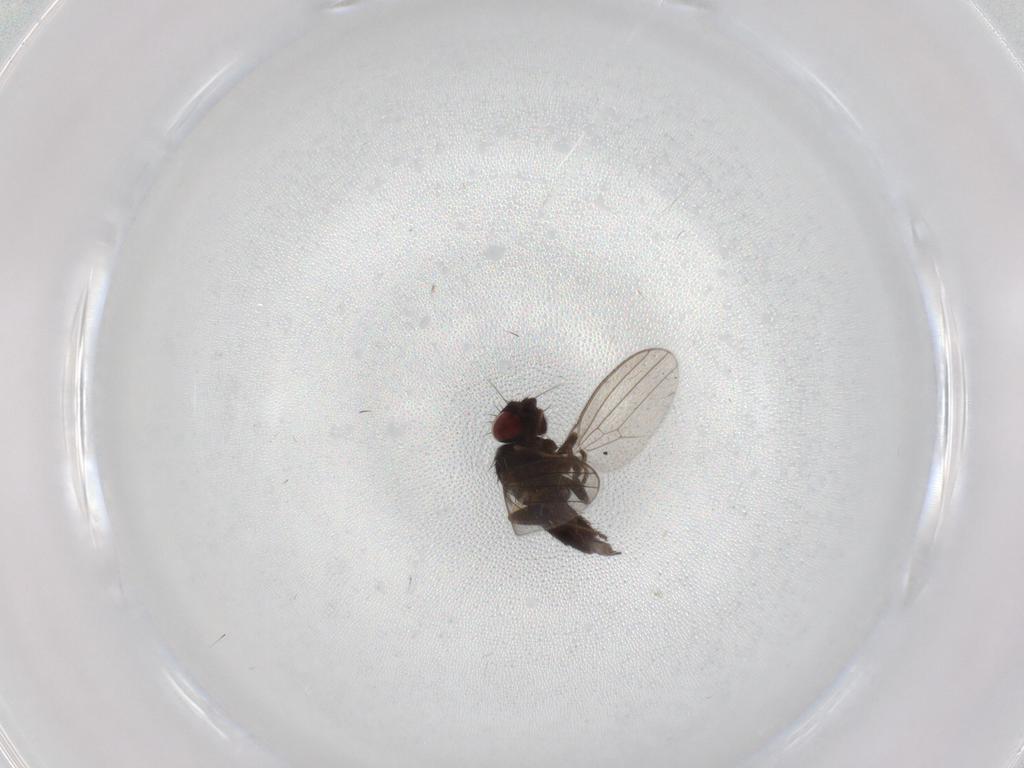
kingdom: Animalia
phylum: Arthropoda
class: Insecta
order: Diptera
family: Milichiidae
